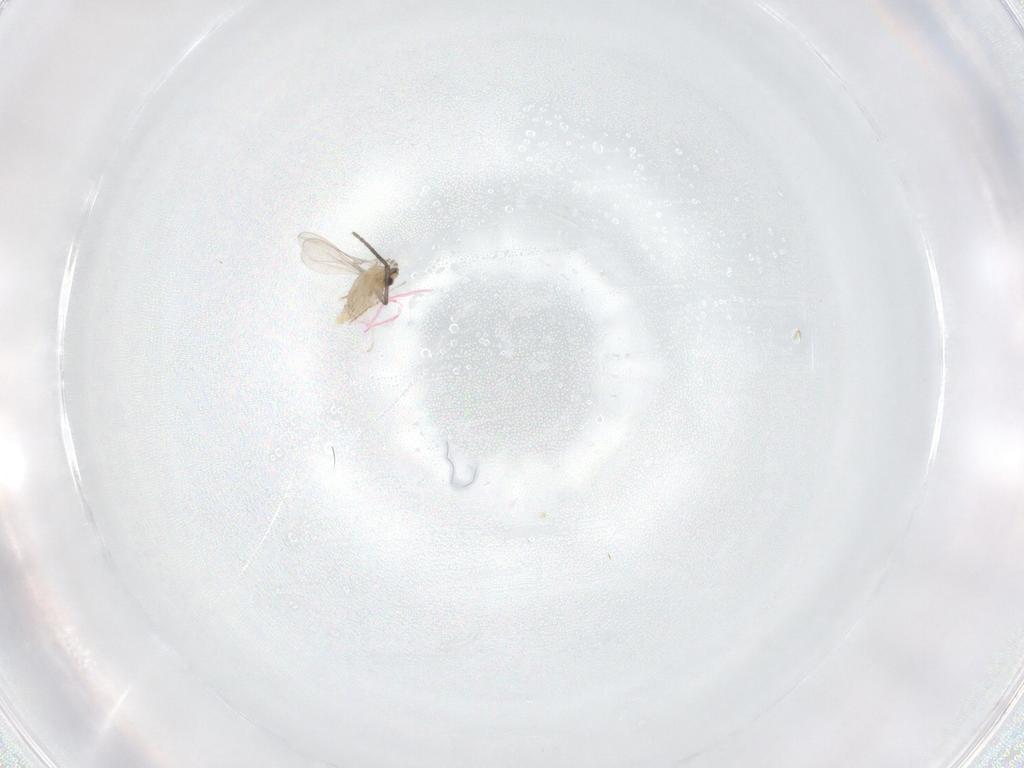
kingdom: Animalia
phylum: Arthropoda
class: Insecta
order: Diptera
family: Cecidomyiidae
